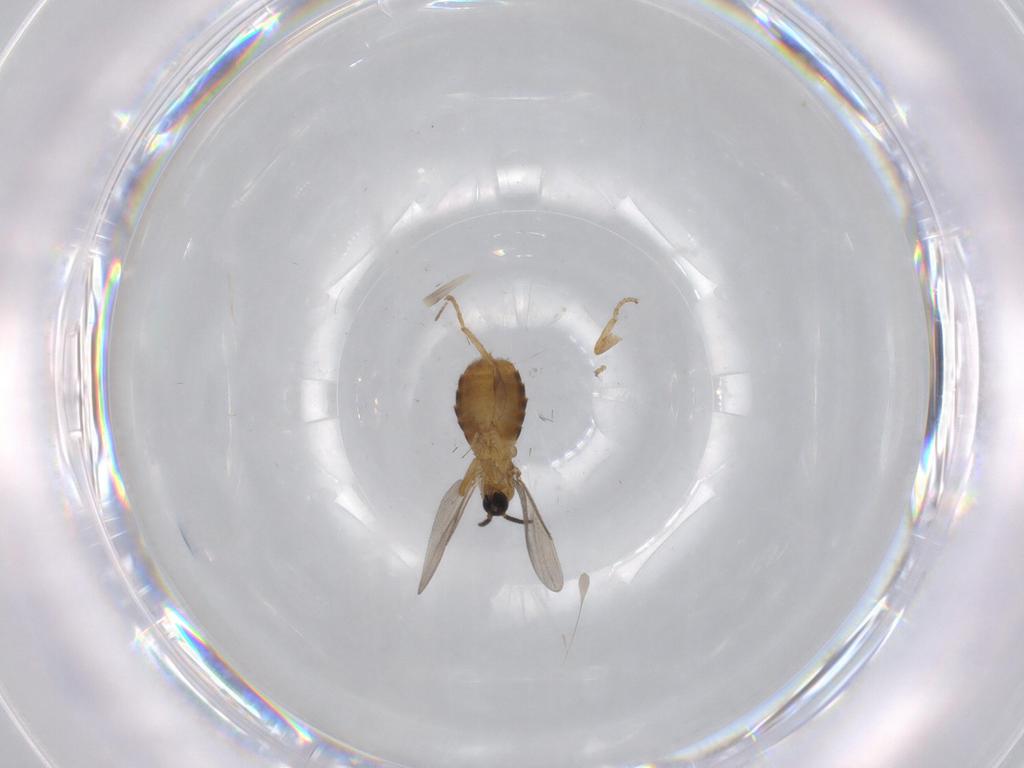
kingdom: Animalia
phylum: Arthropoda
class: Insecta
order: Diptera
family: Scatopsidae
